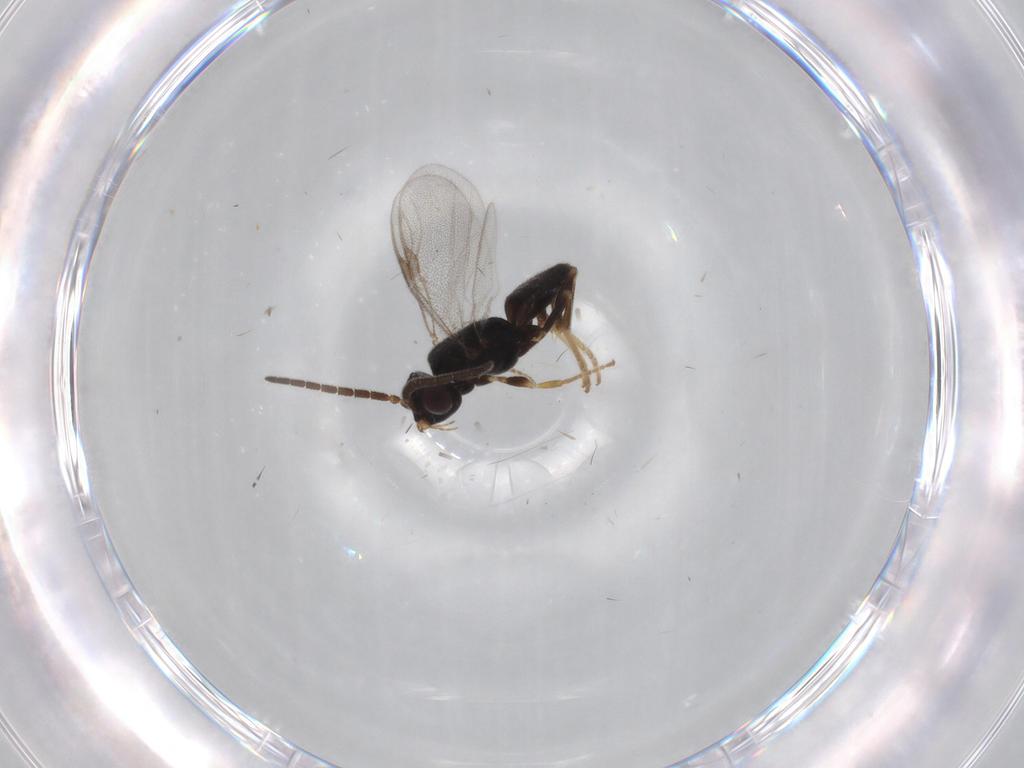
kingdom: Animalia
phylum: Arthropoda
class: Insecta
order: Hymenoptera
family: Dryinidae
